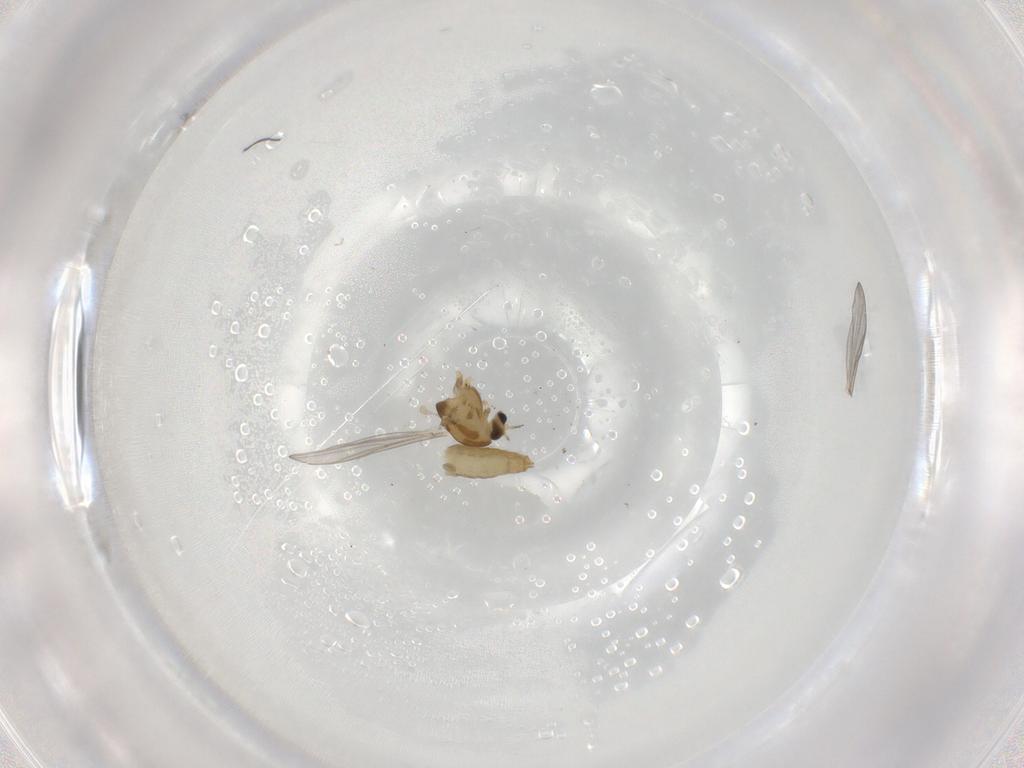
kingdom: Animalia
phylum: Arthropoda
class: Insecta
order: Diptera
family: Chironomidae
